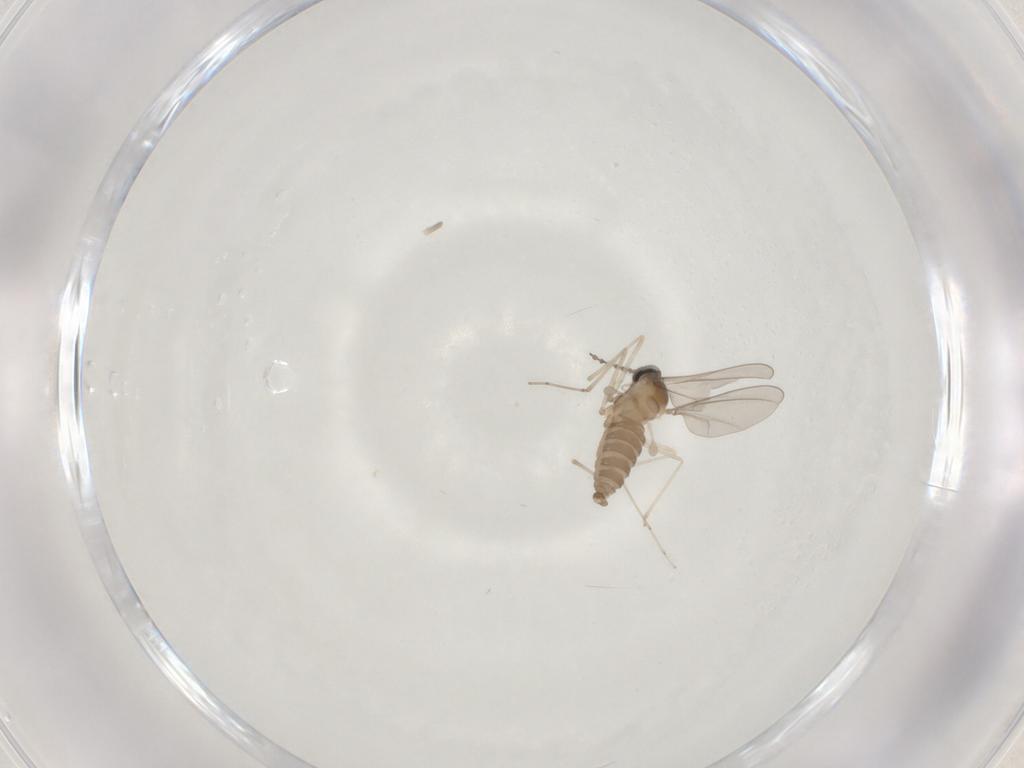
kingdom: Animalia
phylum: Arthropoda
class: Insecta
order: Diptera
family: Cecidomyiidae
